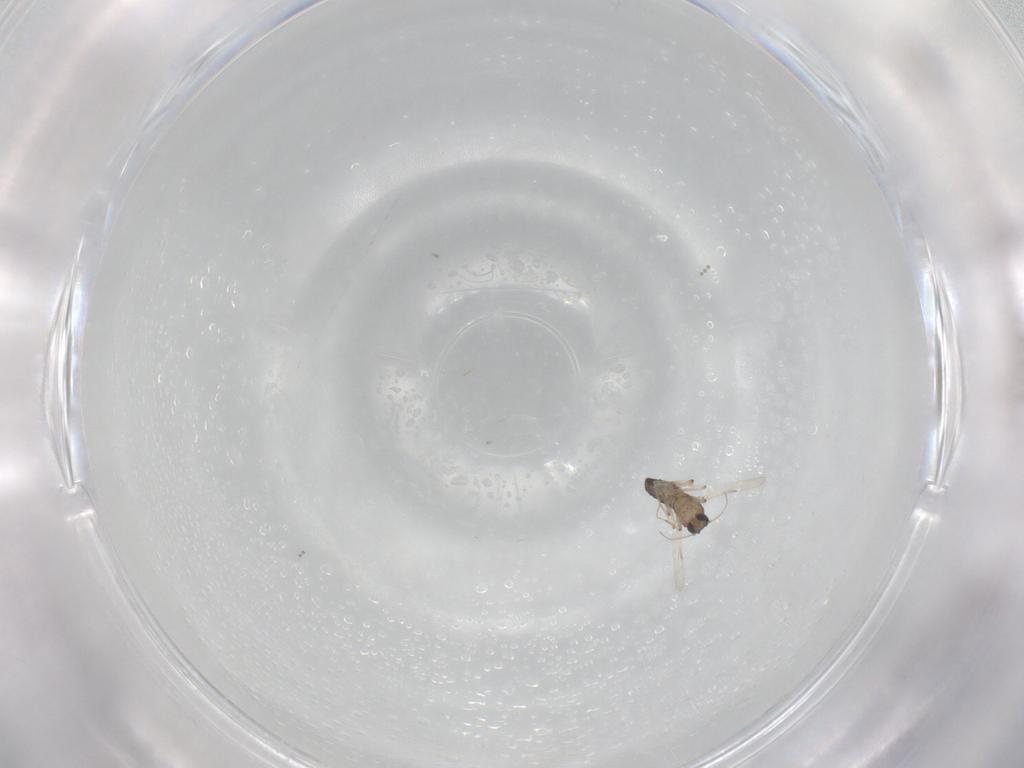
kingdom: Animalia
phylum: Arthropoda
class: Insecta
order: Diptera
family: Ceratopogonidae
